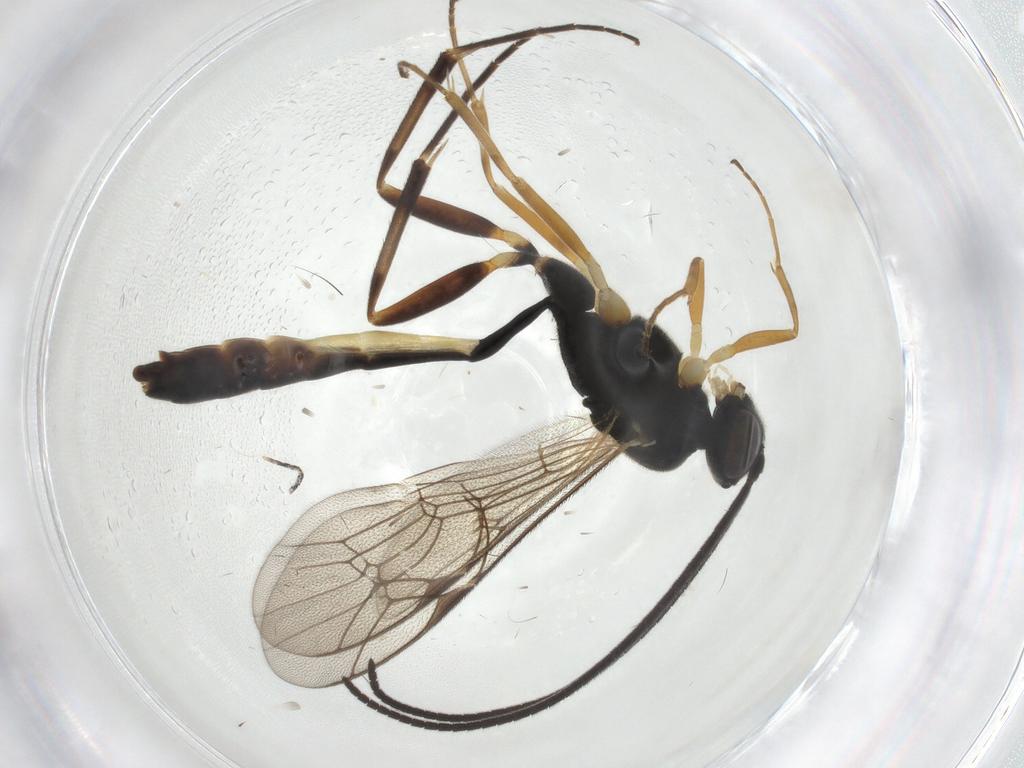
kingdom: Animalia
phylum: Arthropoda
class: Insecta
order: Hymenoptera
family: Ichneumonidae
